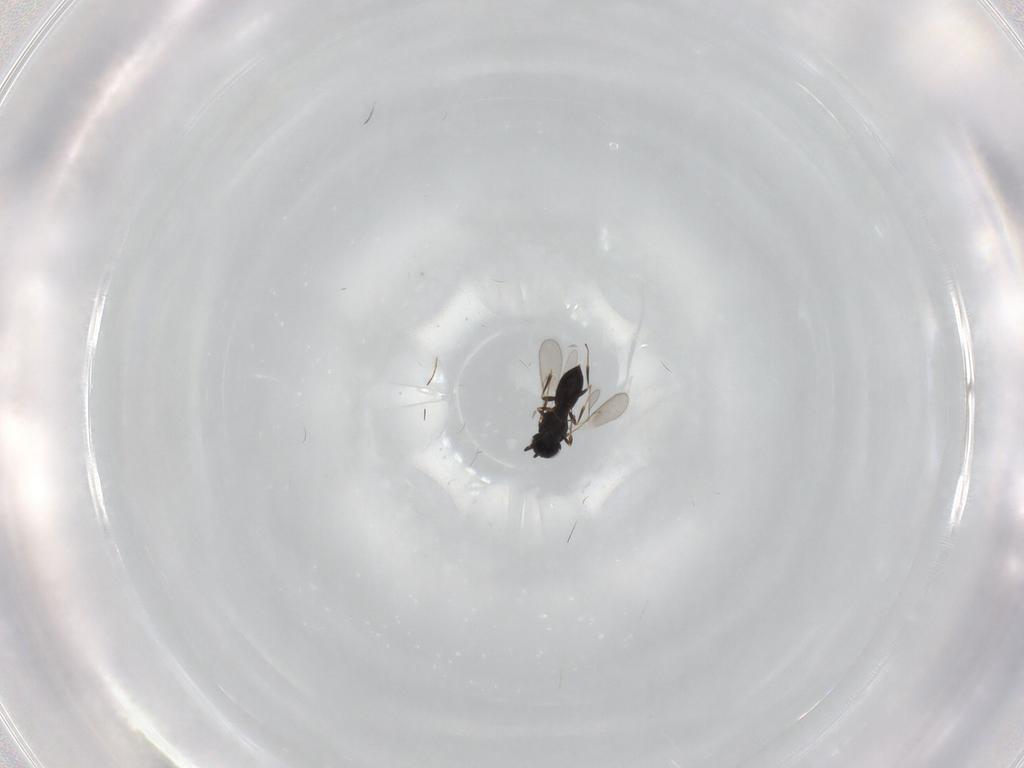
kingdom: Animalia
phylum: Arthropoda
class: Insecta
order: Hymenoptera
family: Scelionidae
